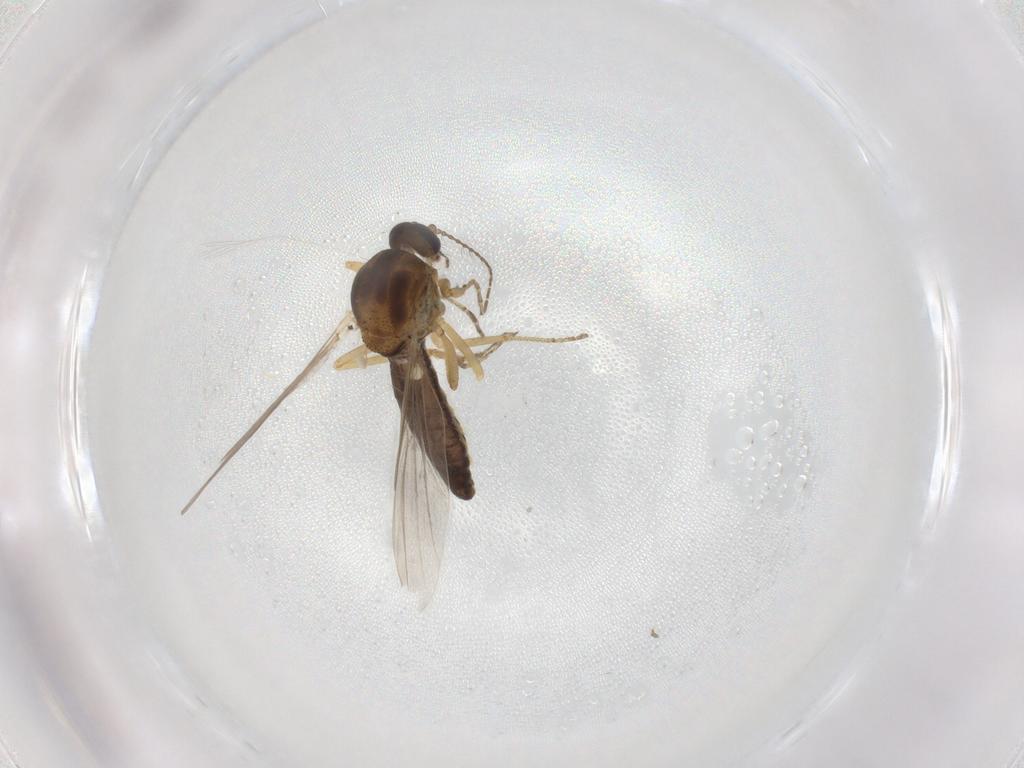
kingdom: Animalia
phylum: Arthropoda
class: Insecta
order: Diptera
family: Ceratopogonidae
